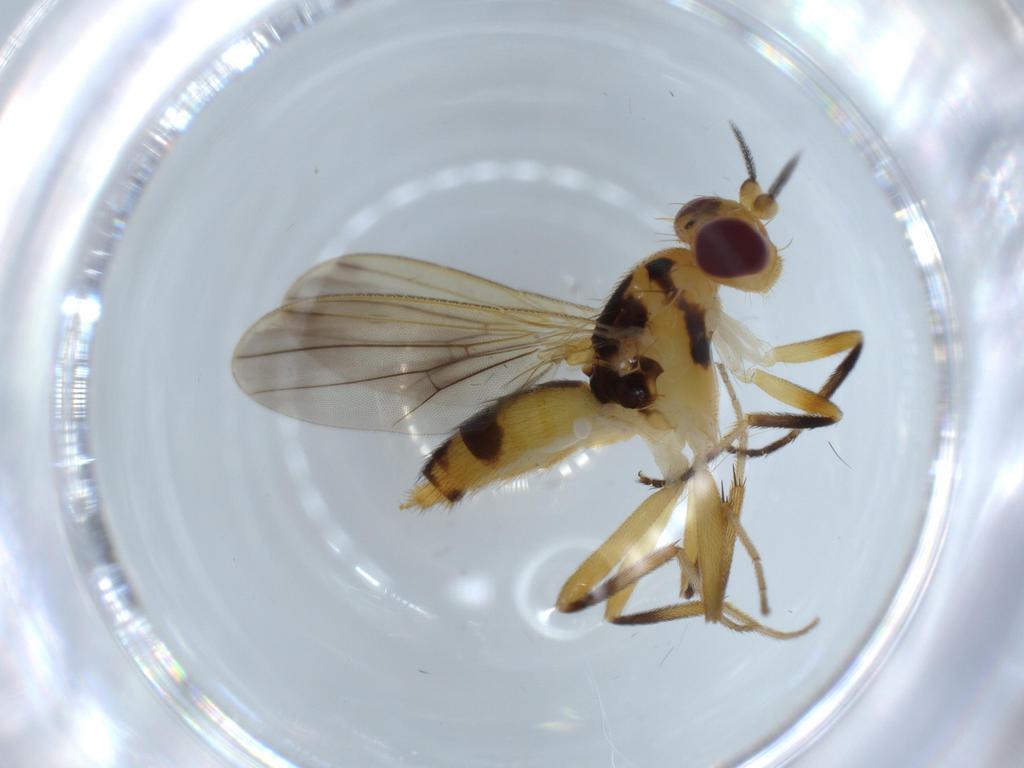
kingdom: Animalia
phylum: Arthropoda
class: Insecta
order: Diptera
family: Clusiidae
